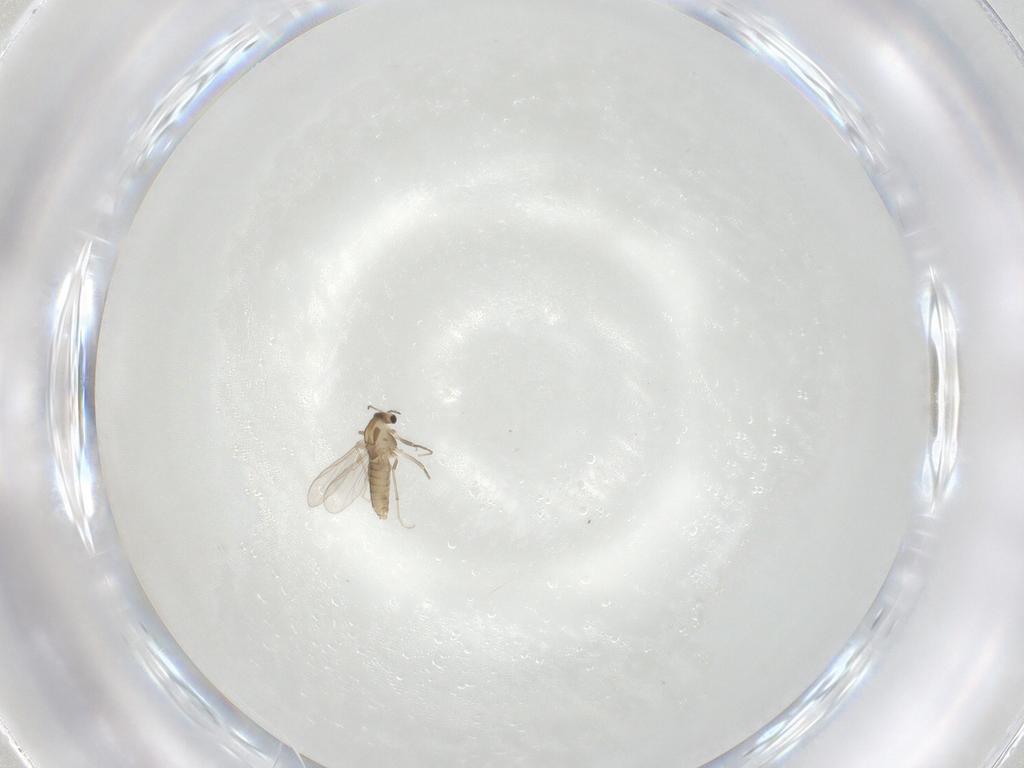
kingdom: Animalia
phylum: Arthropoda
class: Insecta
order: Diptera
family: Chironomidae
